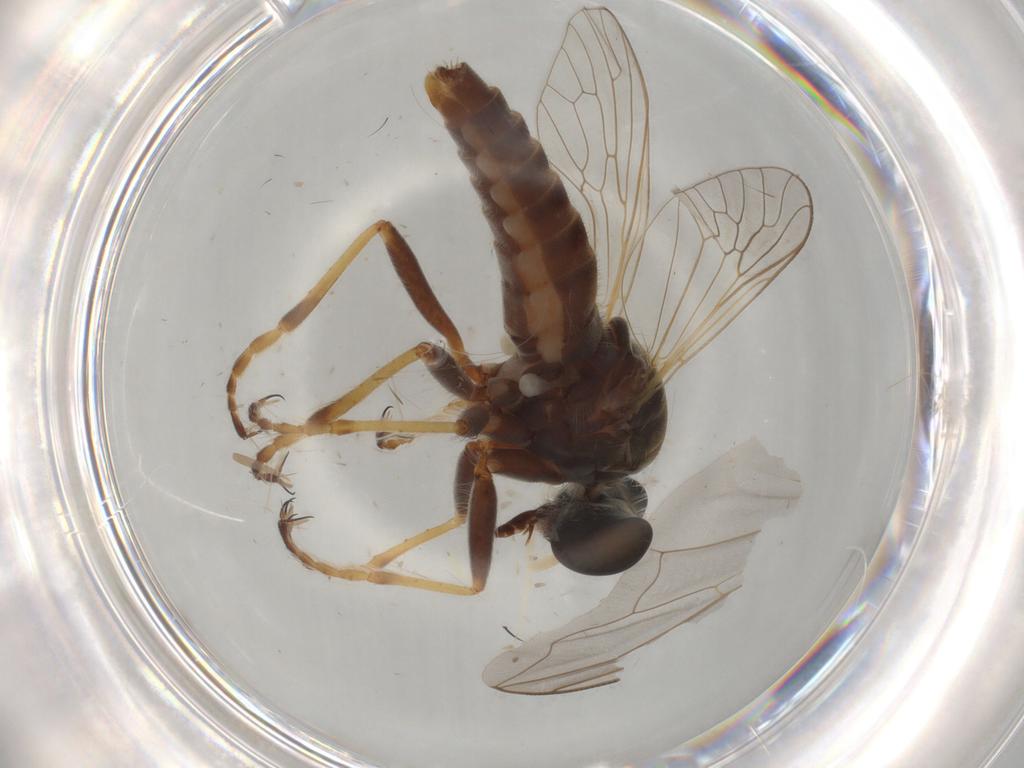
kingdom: Animalia
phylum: Arthropoda
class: Insecta
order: Diptera
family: Asilidae
